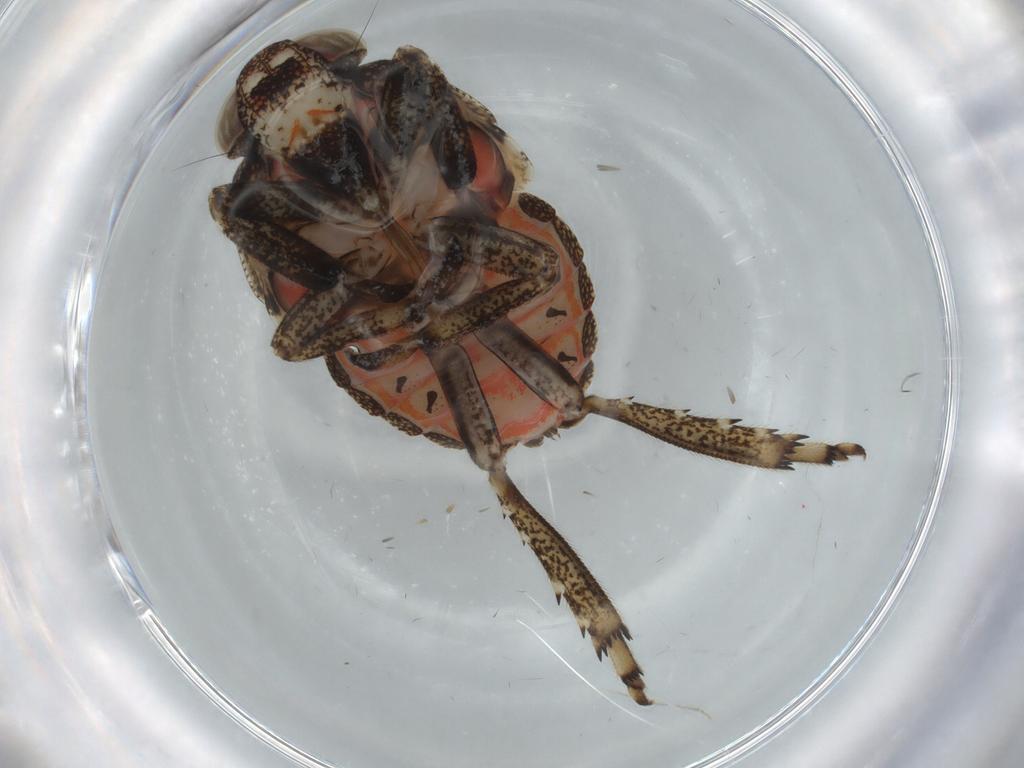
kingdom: Animalia
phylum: Arthropoda
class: Insecta
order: Hemiptera
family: Issidae
